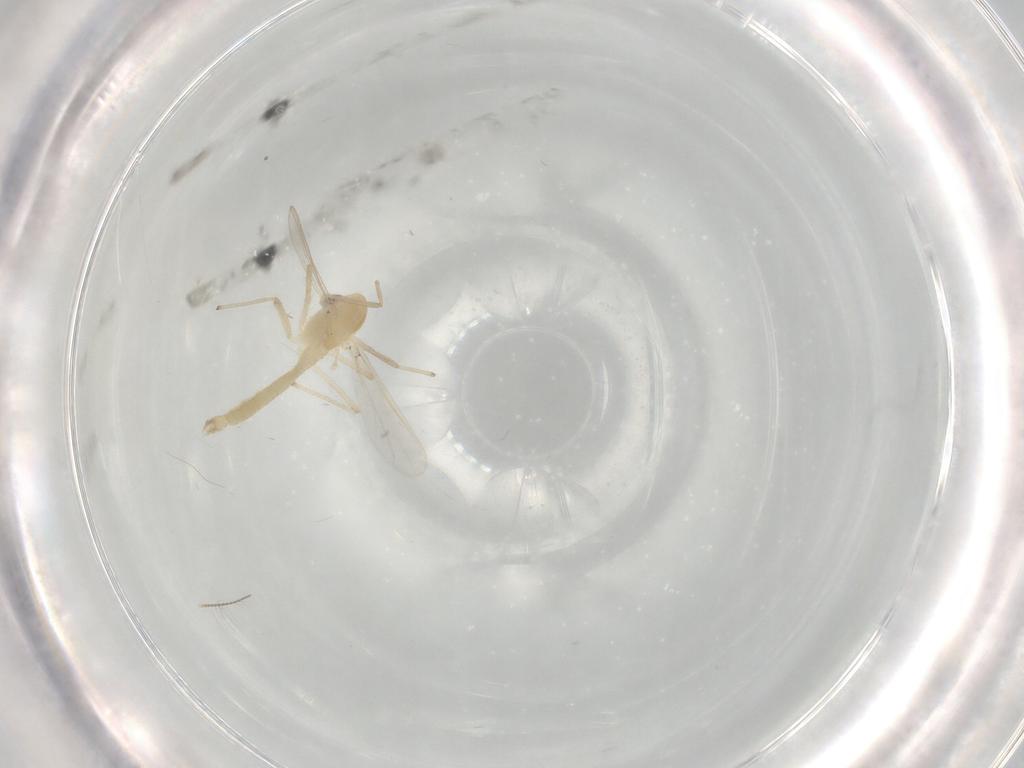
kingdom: Animalia
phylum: Arthropoda
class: Insecta
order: Diptera
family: Chironomidae
